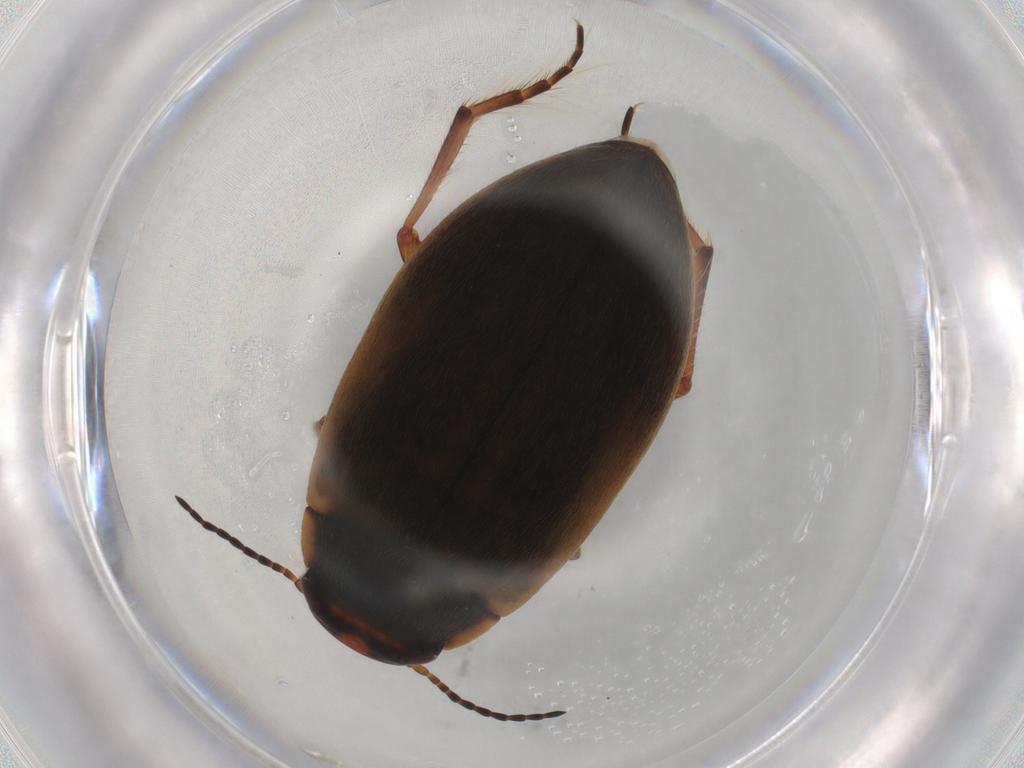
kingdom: Animalia
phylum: Arthropoda
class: Insecta
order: Coleoptera
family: Dytiscidae
